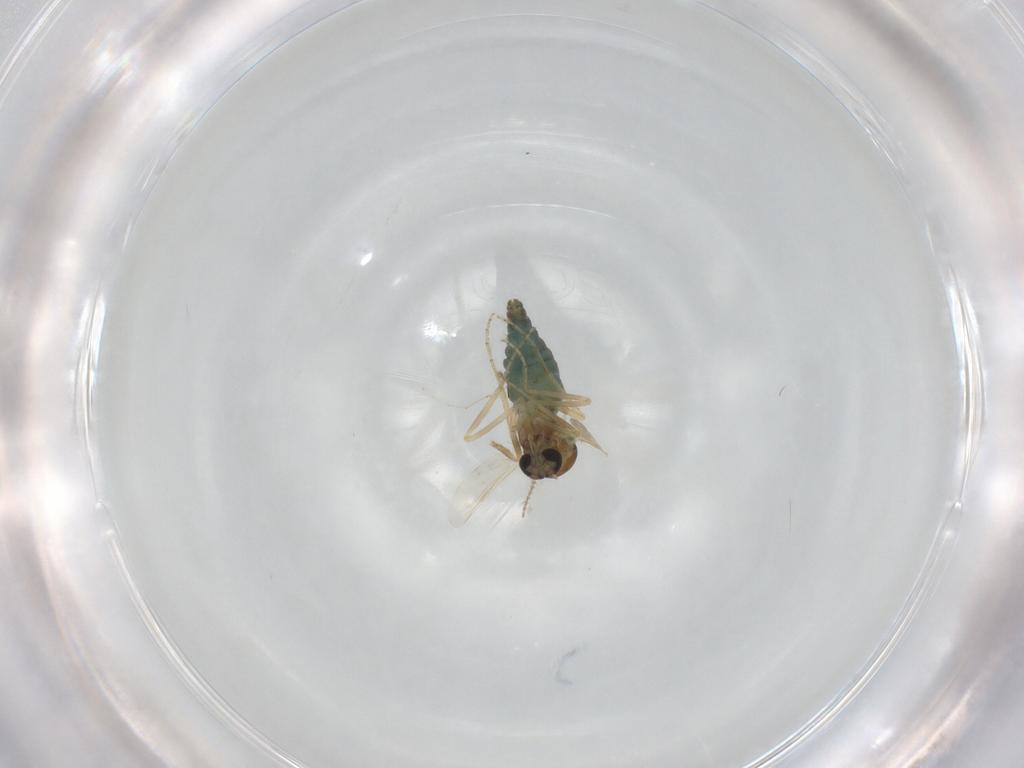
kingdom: Animalia
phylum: Arthropoda
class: Insecta
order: Diptera
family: Ceratopogonidae
